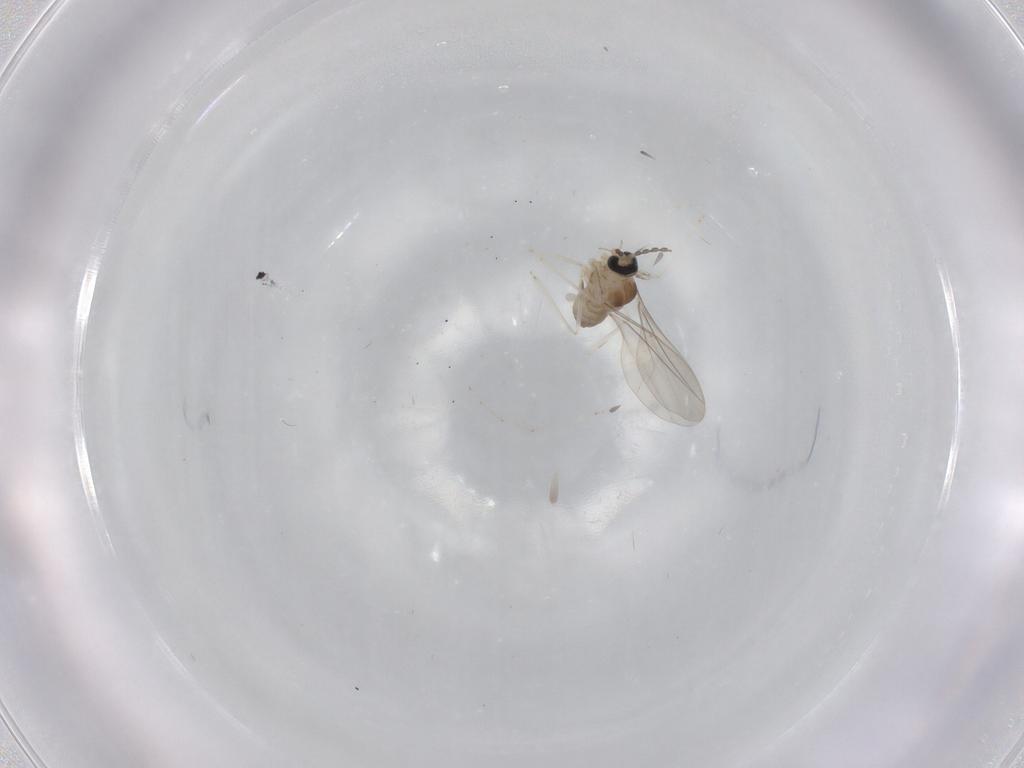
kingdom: Animalia
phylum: Arthropoda
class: Insecta
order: Diptera
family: Cecidomyiidae
